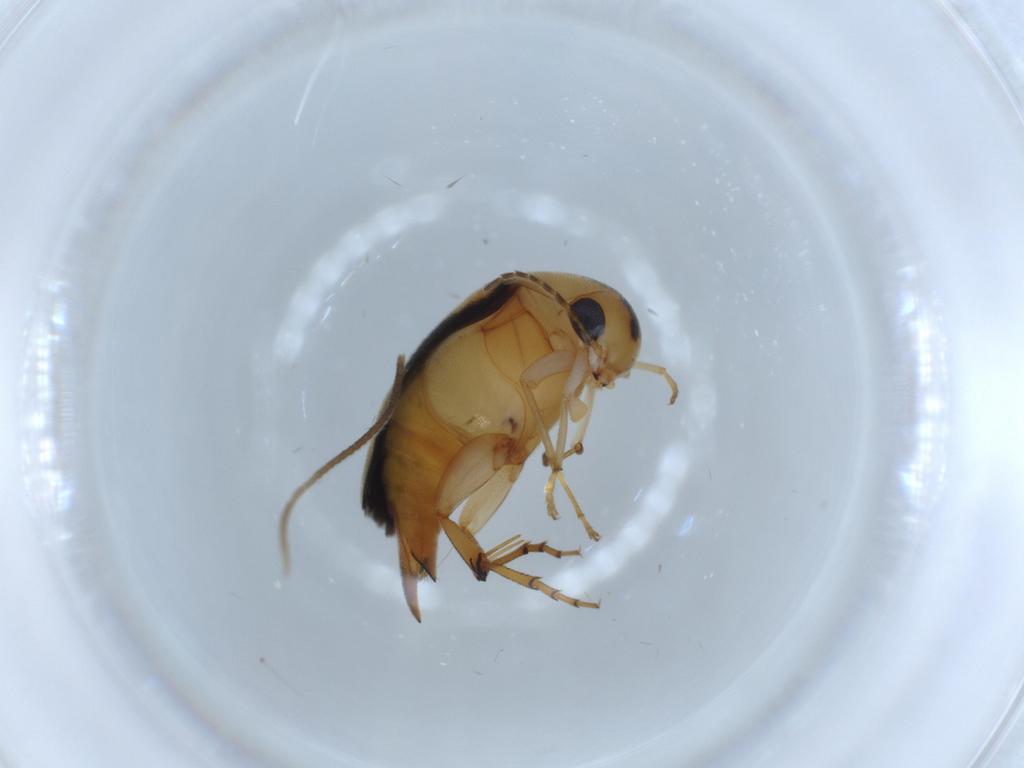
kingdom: Animalia
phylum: Arthropoda
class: Insecta
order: Coleoptera
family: Mordellidae
